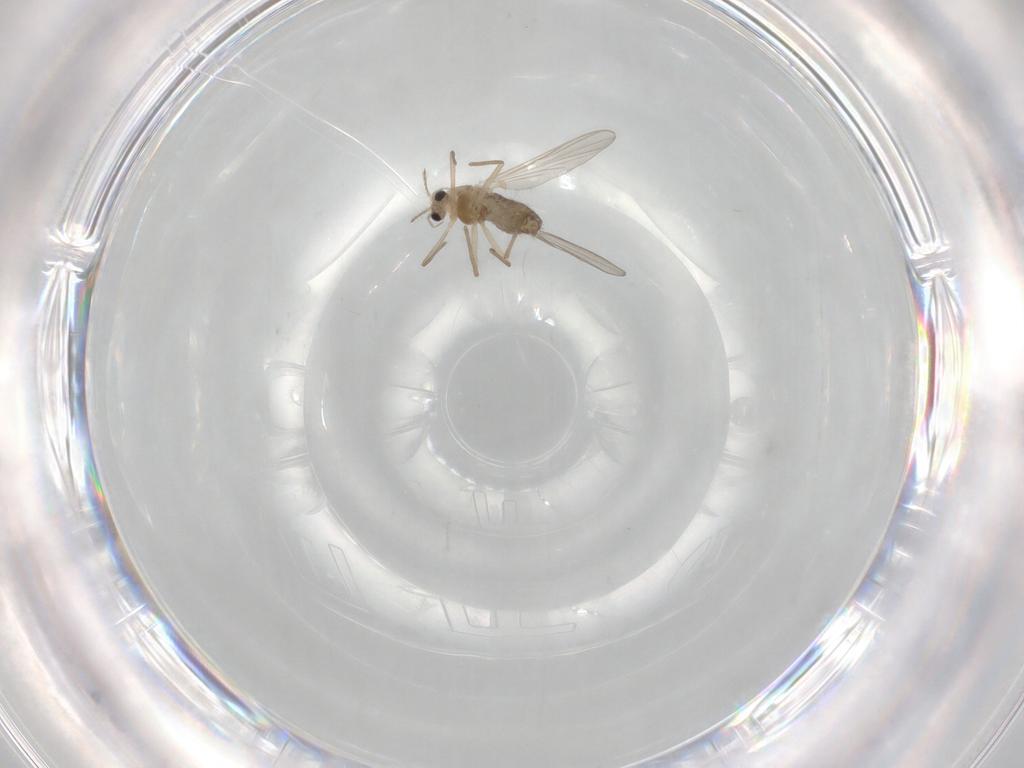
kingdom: Animalia
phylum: Arthropoda
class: Insecta
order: Diptera
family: Chironomidae
